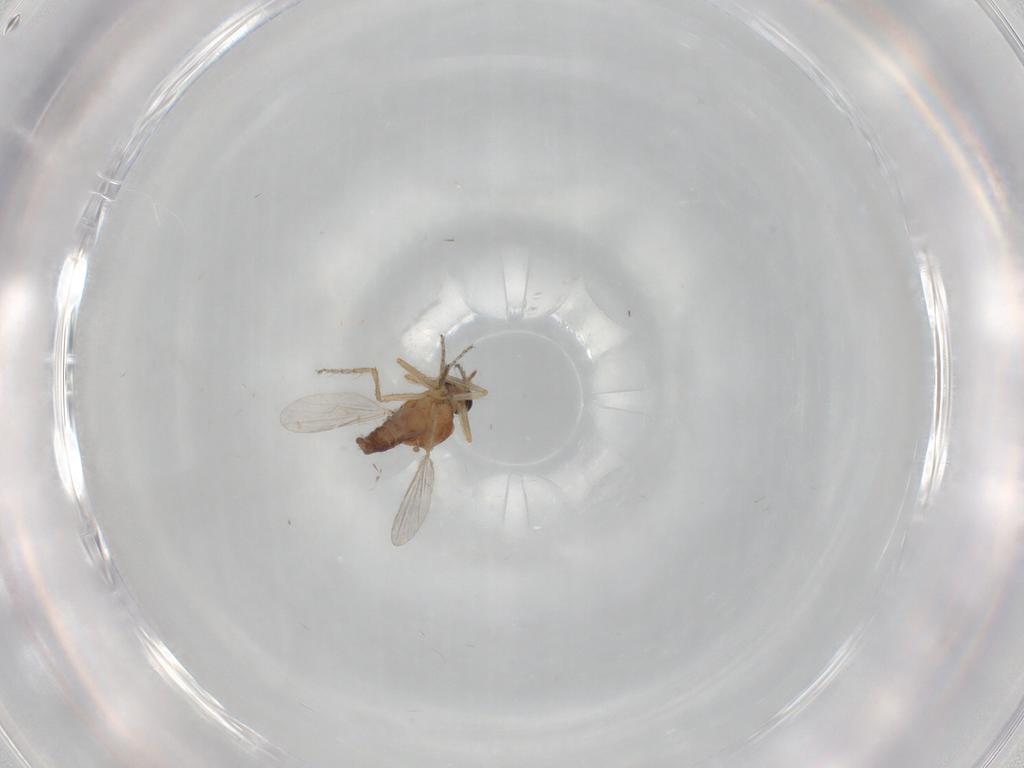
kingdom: Animalia
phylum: Arthropoda
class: Insecta
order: Diptera
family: Ceratopogonidae
